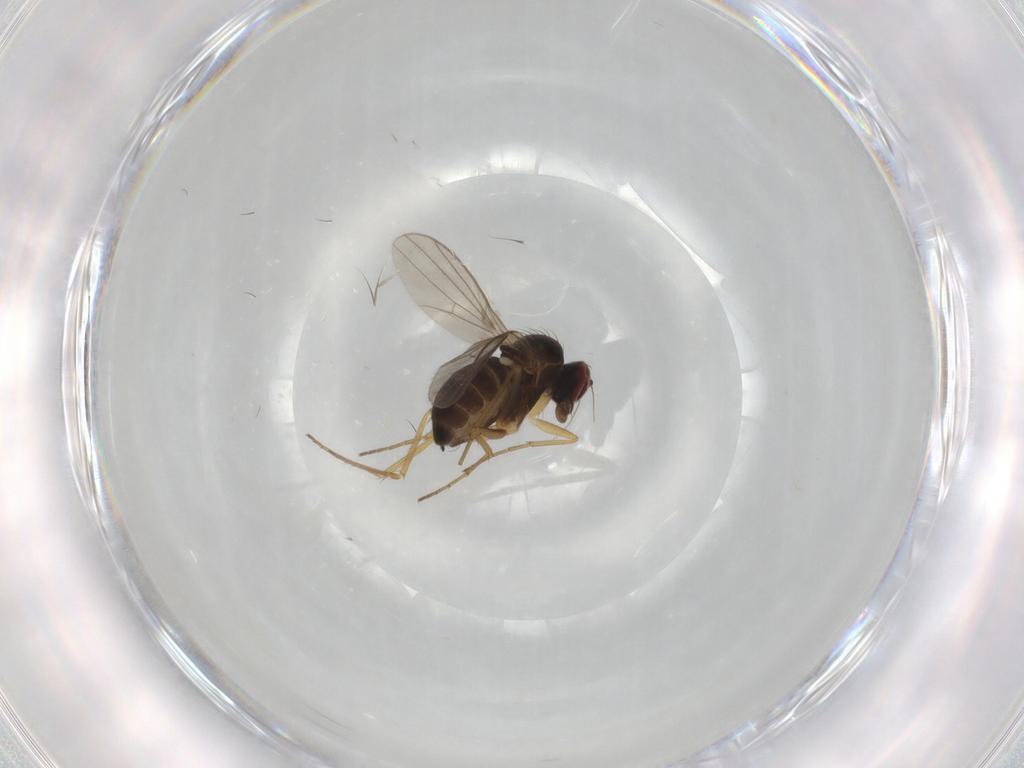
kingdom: Animalia
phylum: Arthropoda
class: Insecta
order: Diptera
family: Dolichopodidae
